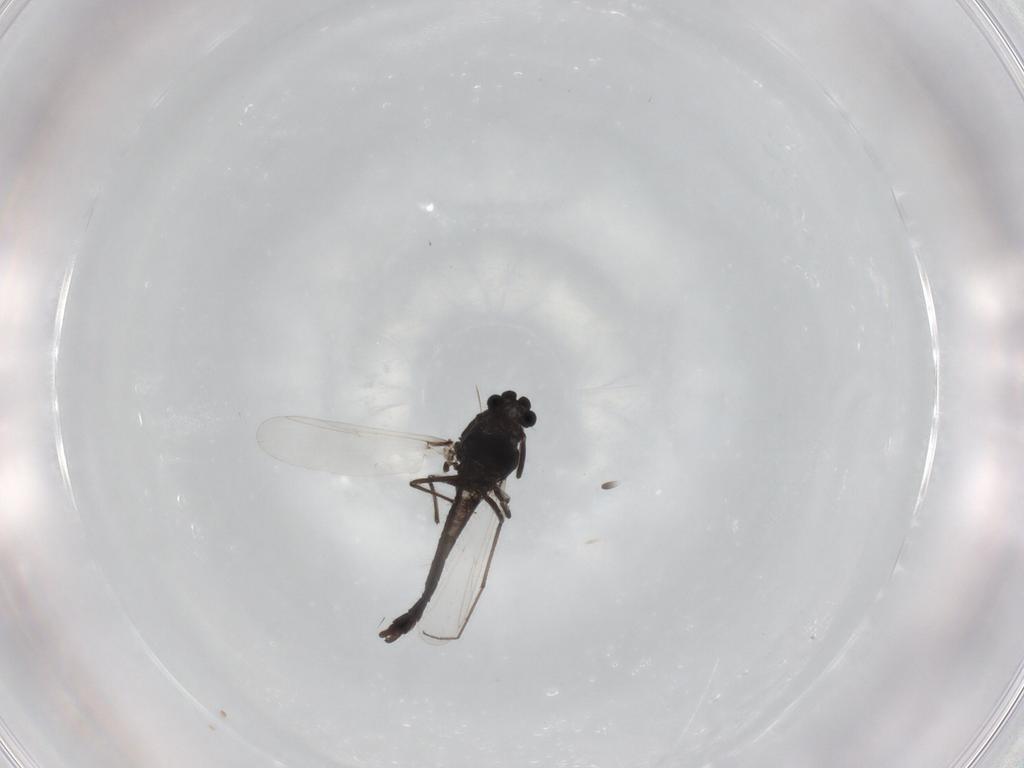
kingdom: Animalia
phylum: Arthropoda
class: Insecta
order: Diptera
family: Chironomidae
